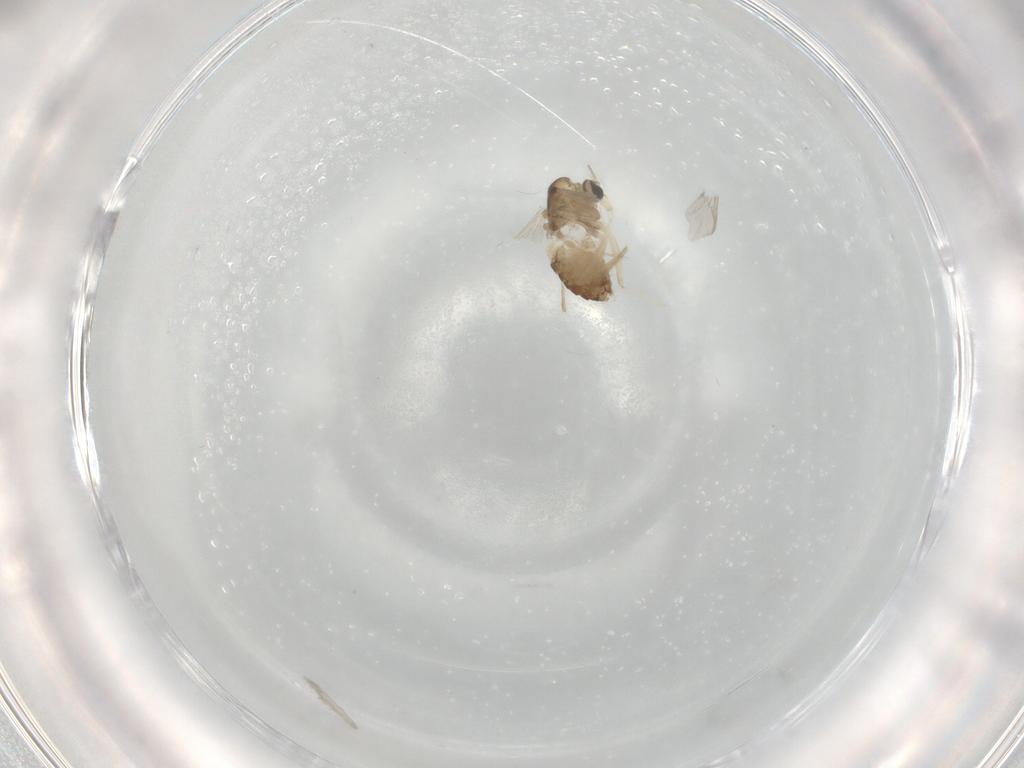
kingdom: Animalia
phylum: Arthropoda
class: Insecta
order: Diptera
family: Chironomidae
